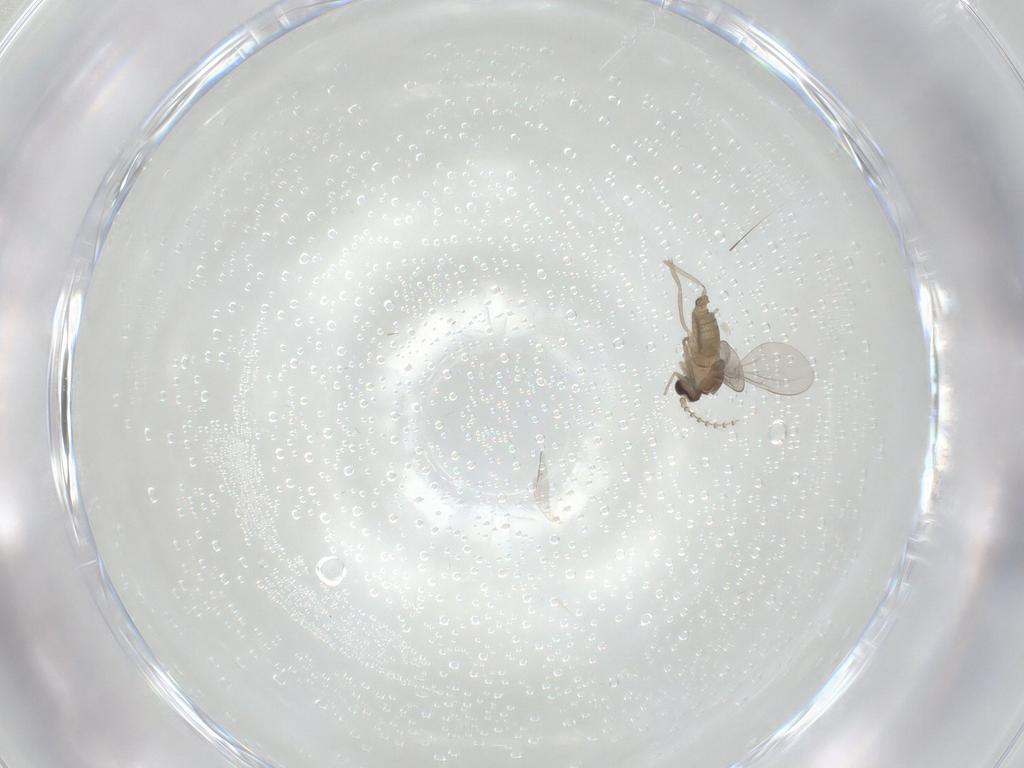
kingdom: Animalia
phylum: Arthropoda
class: Insecta
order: Diptera
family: Cecidomyiidae
